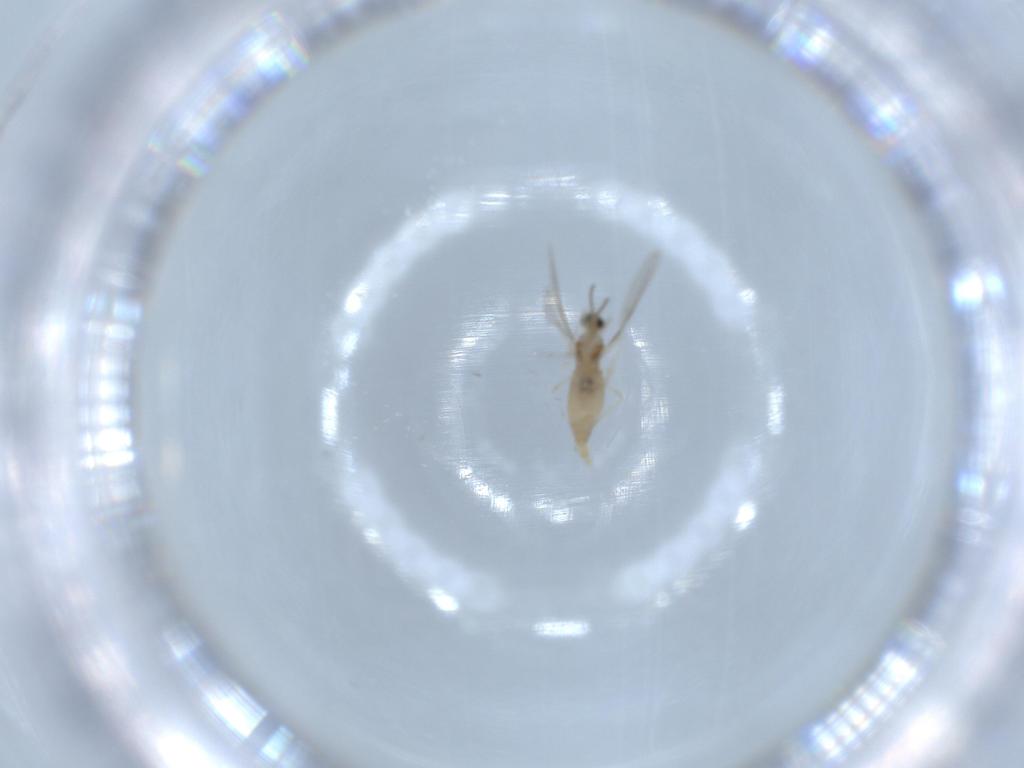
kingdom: Animalia
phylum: Arthropoda
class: Insecta
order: Diptera
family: Cecidomyiidae
